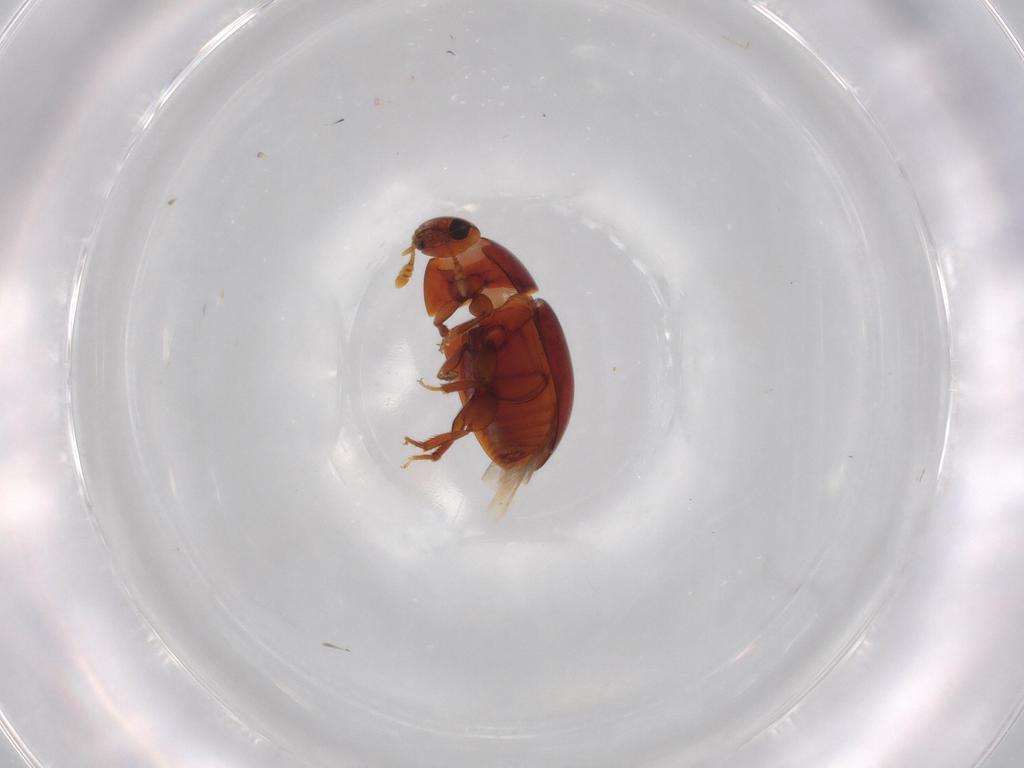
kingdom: Animalia
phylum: Arthropoda
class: Insecta
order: Coleoptera
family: Phalacridae
